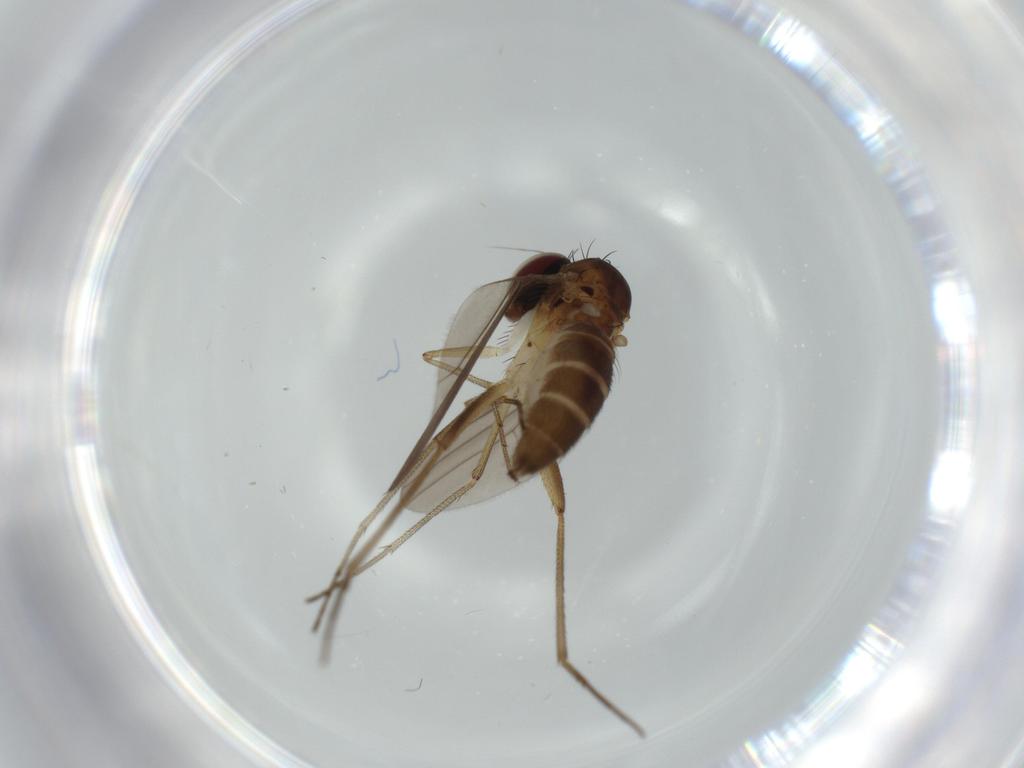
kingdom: Animalia
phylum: Arthropoda
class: Insecta
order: Diptera
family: Dolichopodidae
